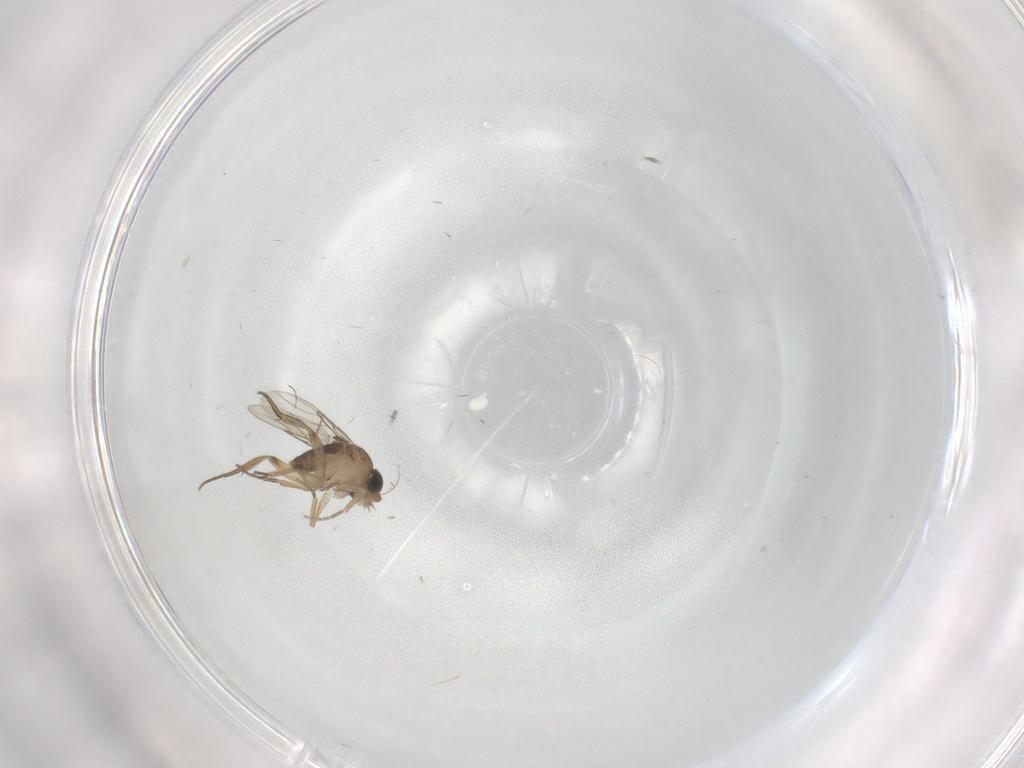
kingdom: Animalia
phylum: Arthropoda
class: Insecta
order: Diptera
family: Phoridae
